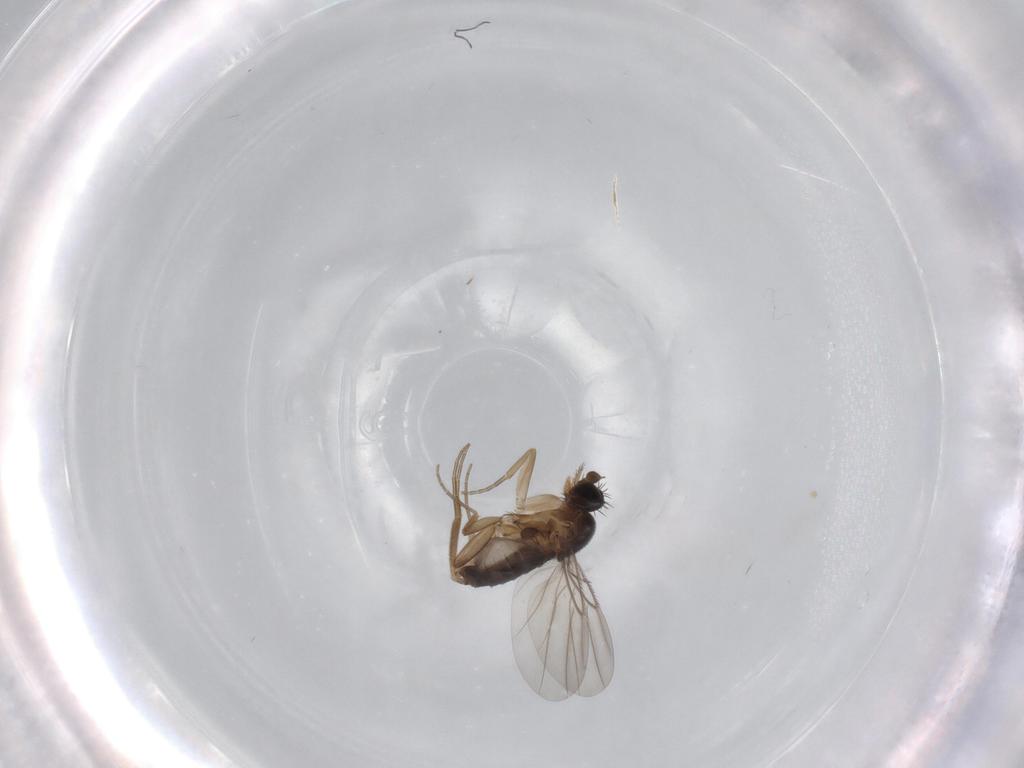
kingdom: Animalia
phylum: Arthropoda
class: Insecta
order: Diptera
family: Phoridae
